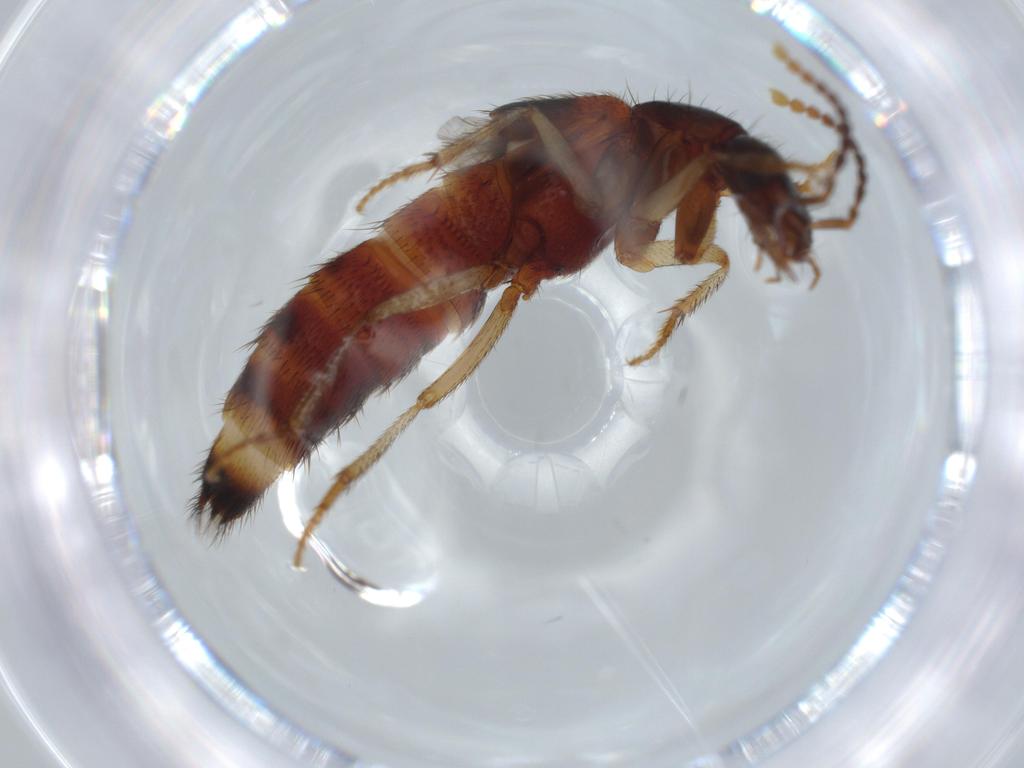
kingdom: Animalia
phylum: Arthropoda
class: Insecta
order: Coleoptera
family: Staphylinidae
